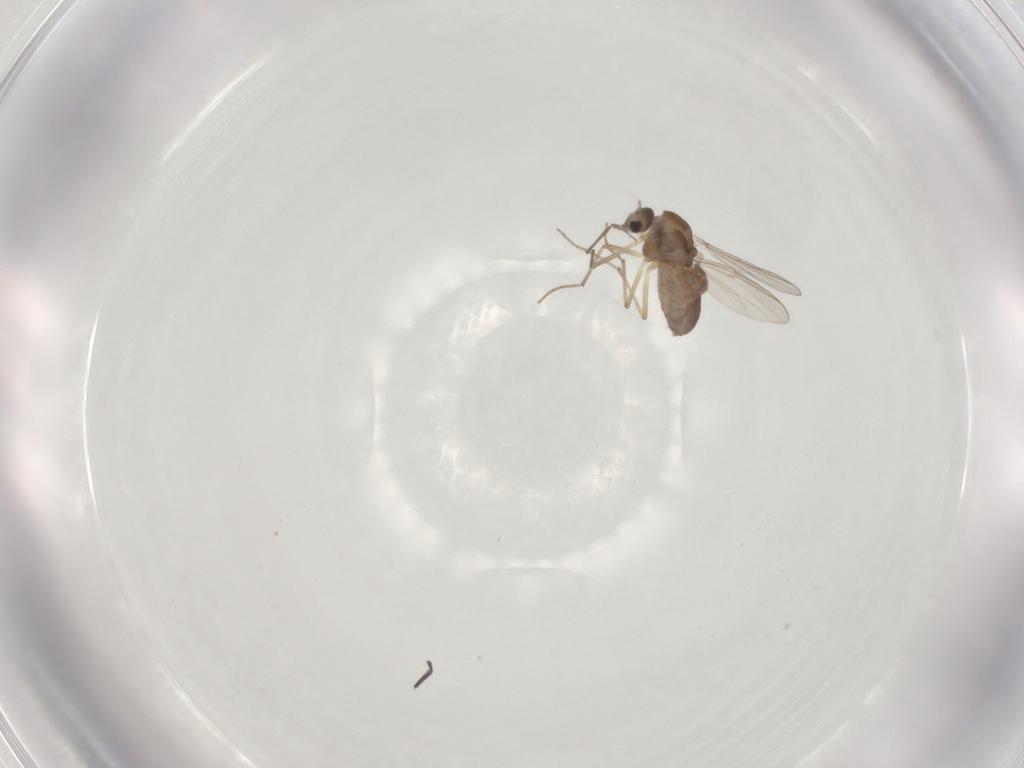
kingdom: Animalia
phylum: Arthropoda
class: Insecta
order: Diptera
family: Chironomidae
